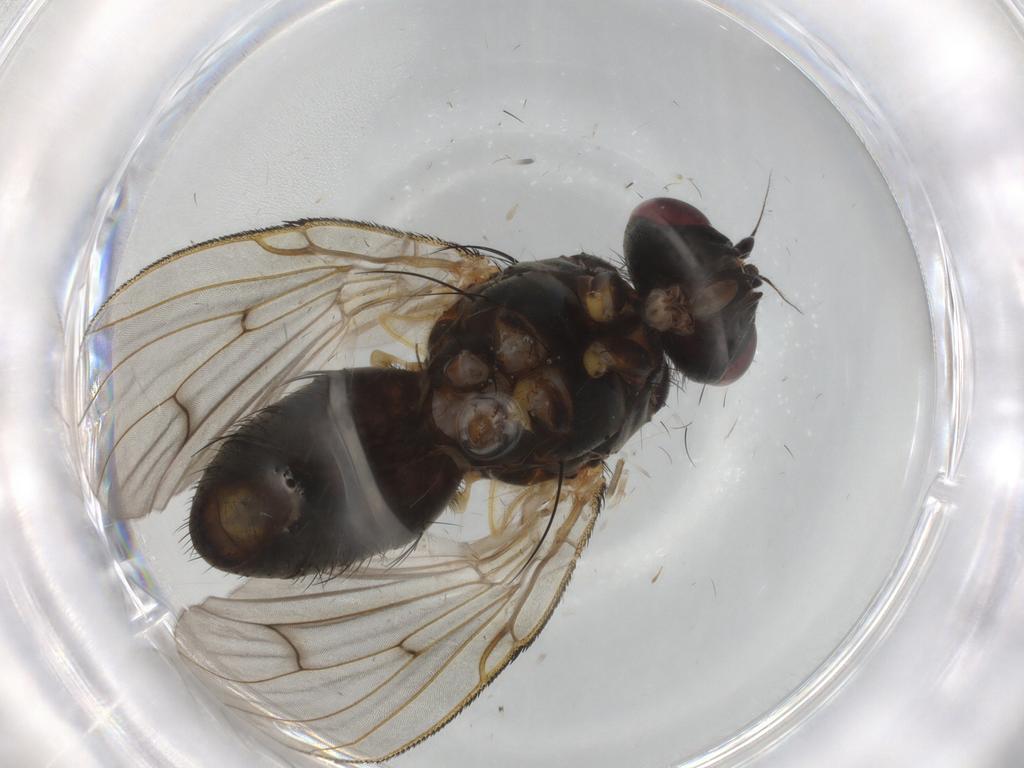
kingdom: Animalia
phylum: Arthropoda
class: Insecta
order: Diptera
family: Muscidae
